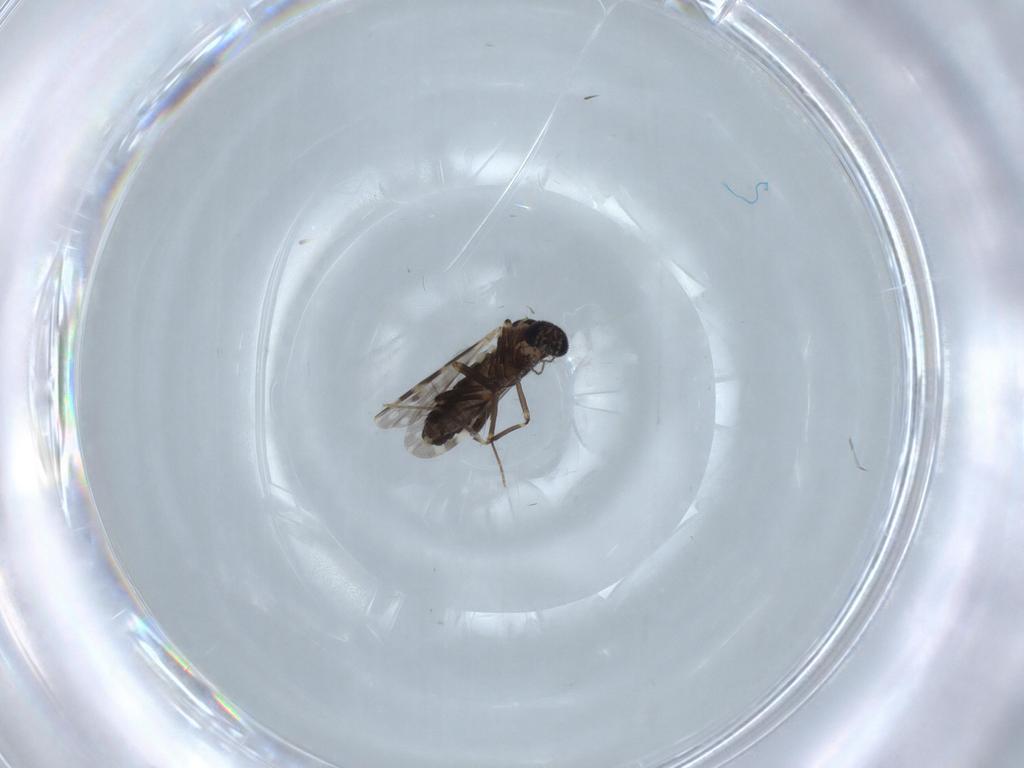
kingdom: Animalia
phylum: Arthropoda
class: Insecta
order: Diptera
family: Ceratopogonidae
